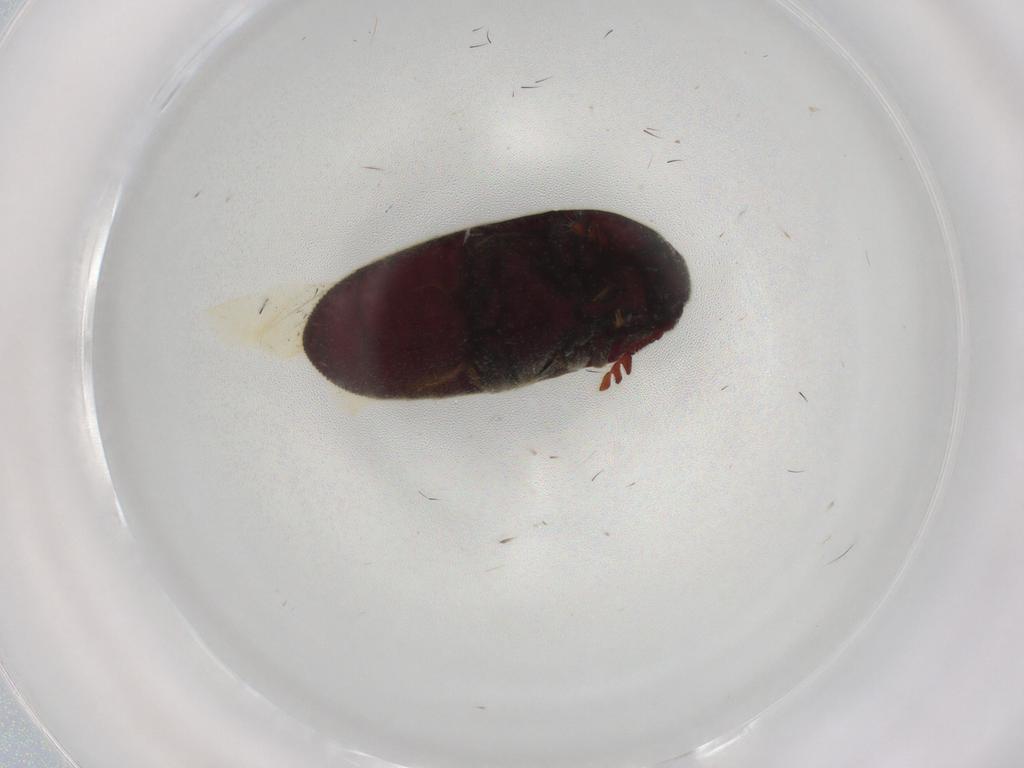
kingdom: Animalia
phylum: Arthropoda
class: Insecta
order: Coleoptera
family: Throscidae
